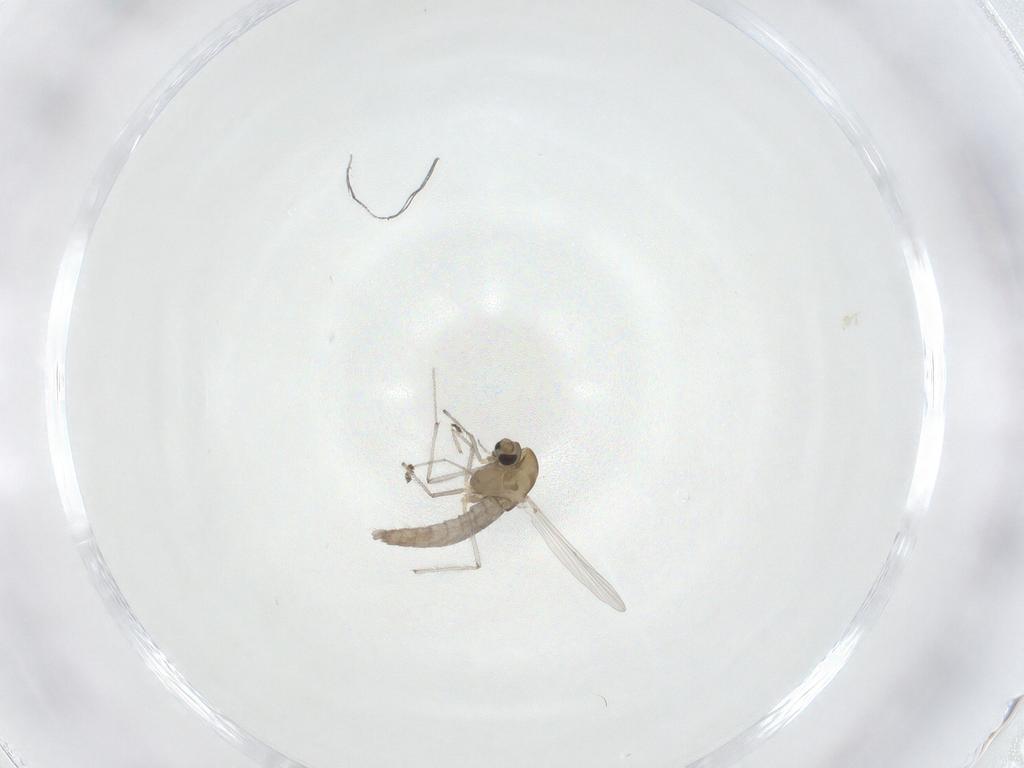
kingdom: Animalia
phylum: Arthropoda
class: Insecta
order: Diptera
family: Chironomidae
